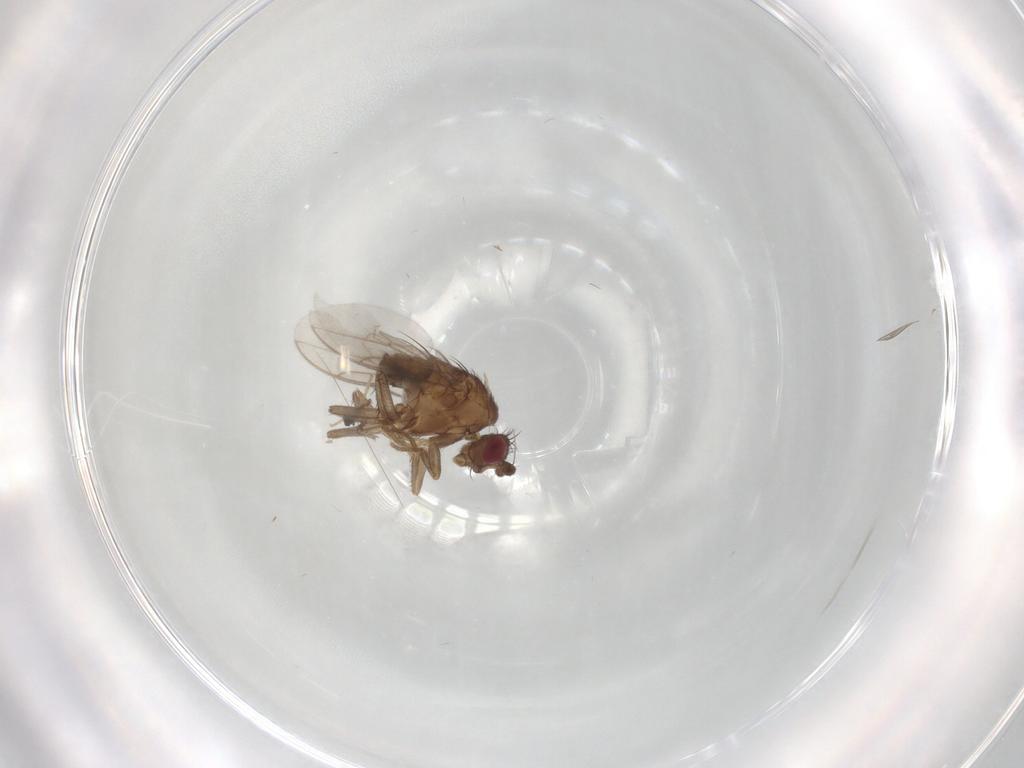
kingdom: Animalia
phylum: Arthropoda
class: Insecta
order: Diptera
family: Sphaeroceridae
